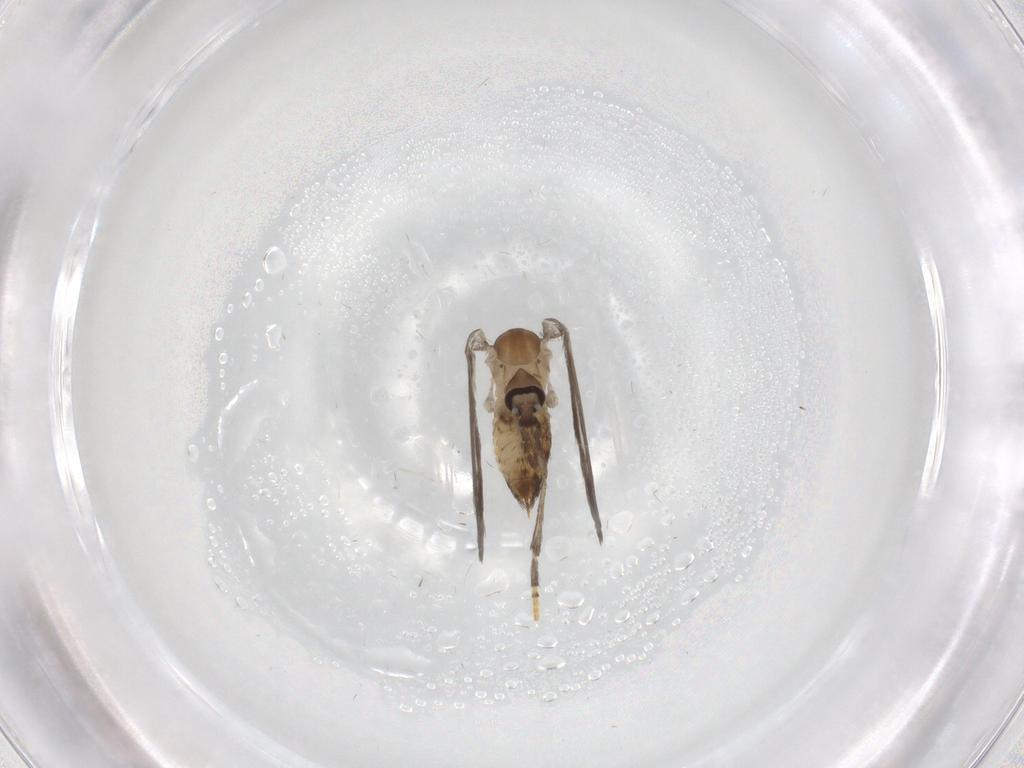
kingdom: Animalia
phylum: Arthropoda
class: Insecta
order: Diptera
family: Psychodidae
